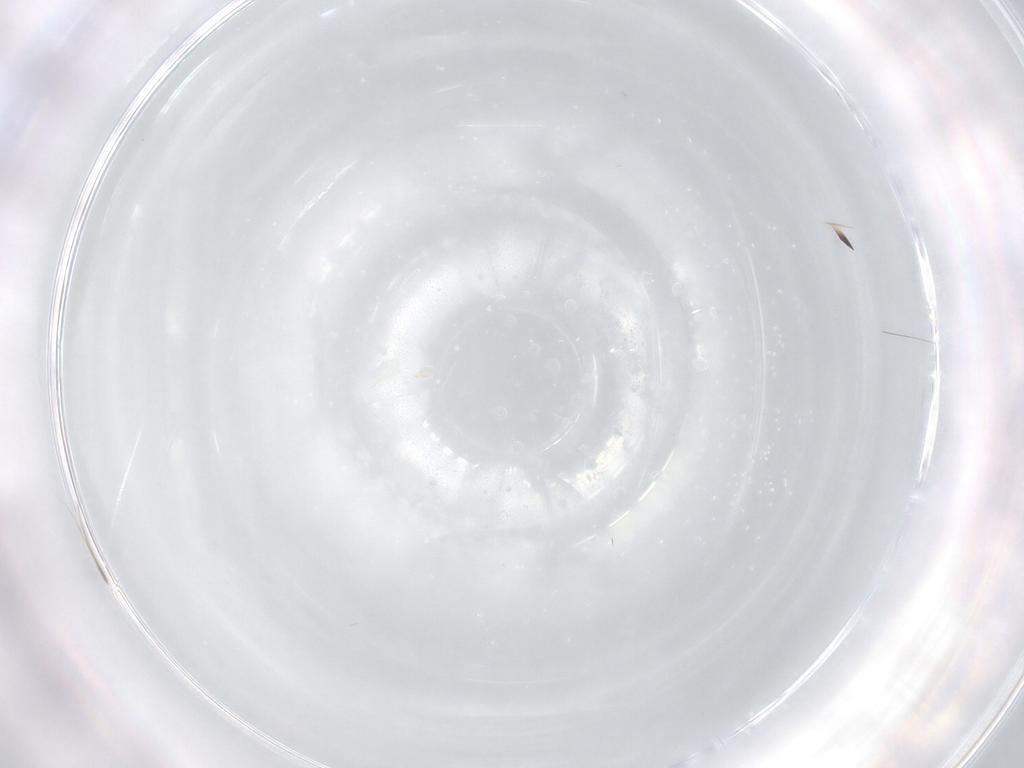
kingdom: Animalia
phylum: Arthropoda
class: Insecta
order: Hymenoptera
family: Mymaridae
